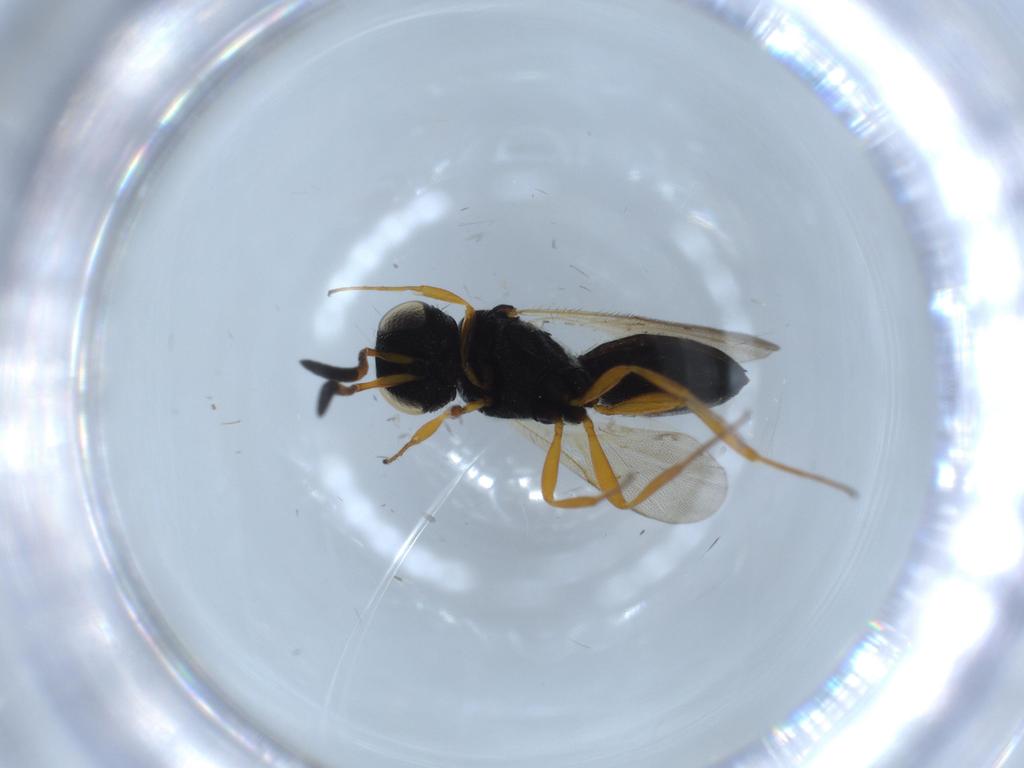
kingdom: Animalia
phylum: Arthropoda
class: Insecta
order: Hymenoptera
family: Scelionidae
